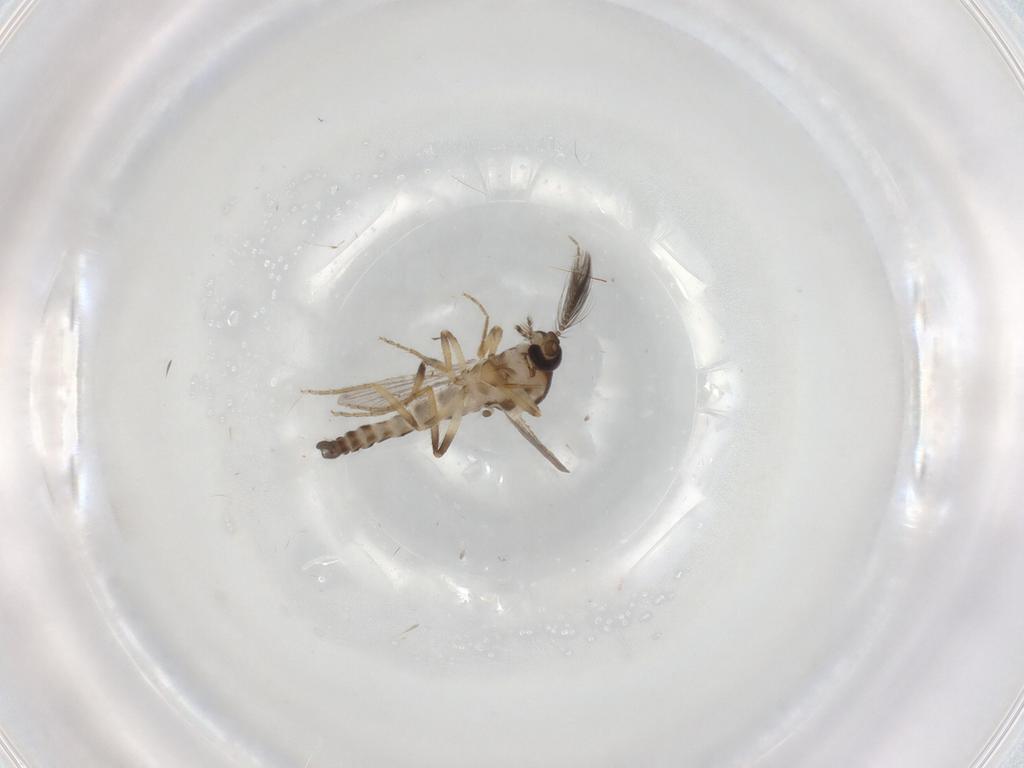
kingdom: Animalia
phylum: Arthropoda
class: Insecta
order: Diptera
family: Ceratopogonidae
